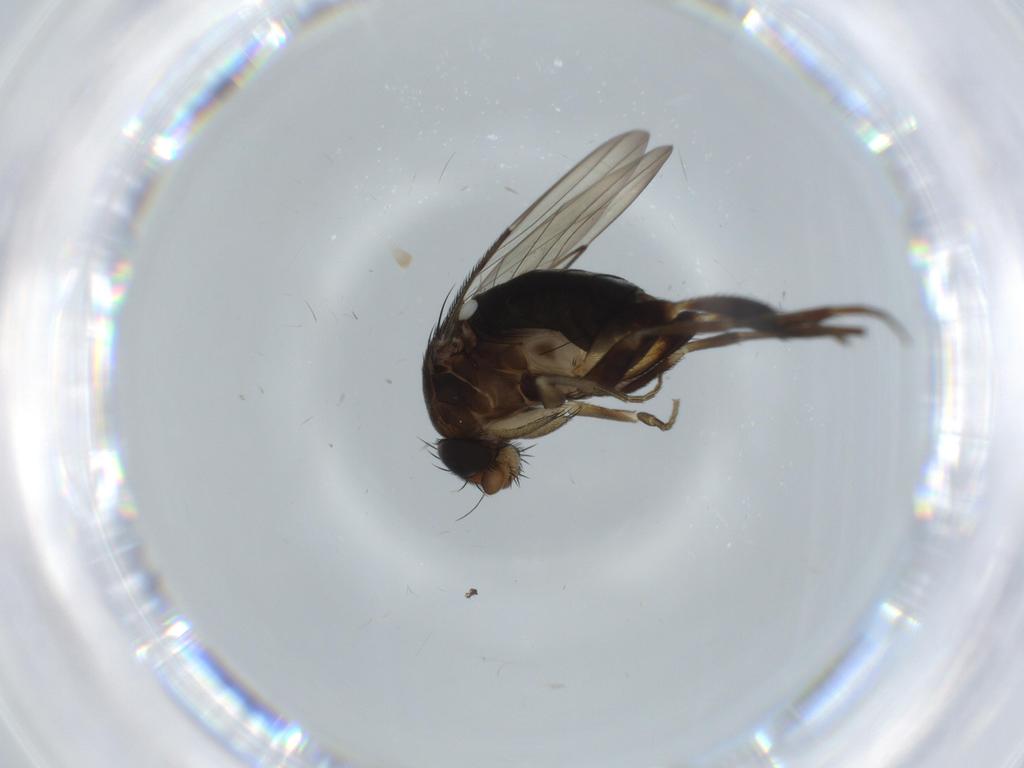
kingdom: Animalia
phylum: Arthropoda
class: Insecta
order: Diptera
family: Phoridae
